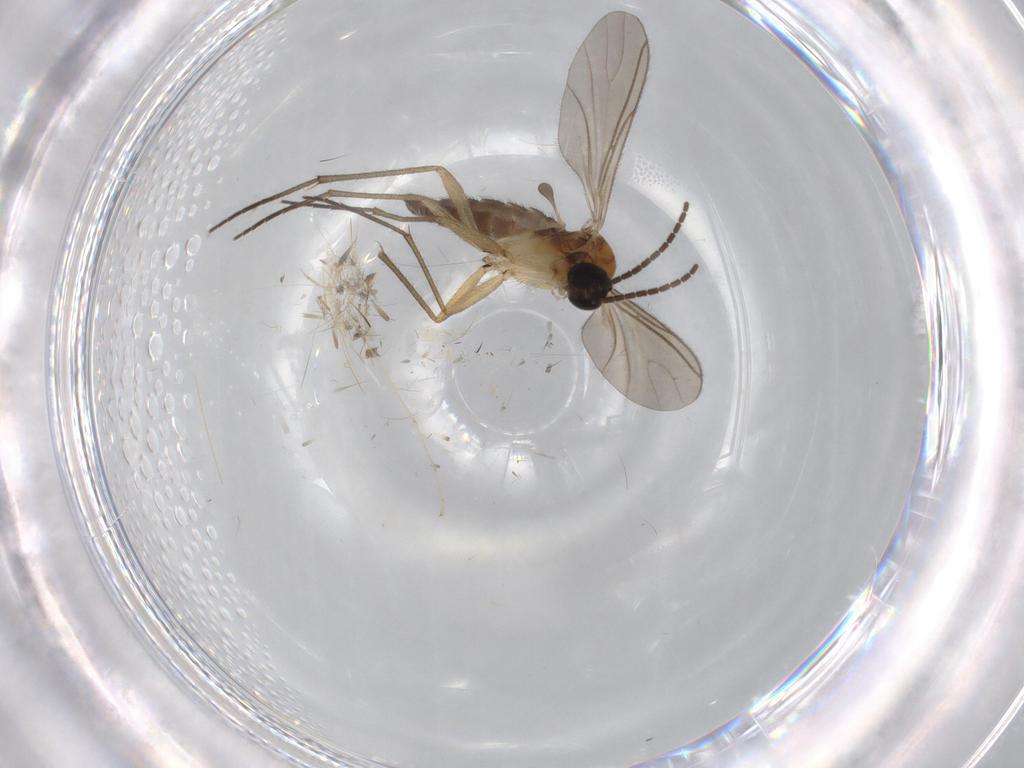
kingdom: Animalia
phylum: Arthropoda
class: Insecta
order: Diptera
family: Cecidomyiidae
